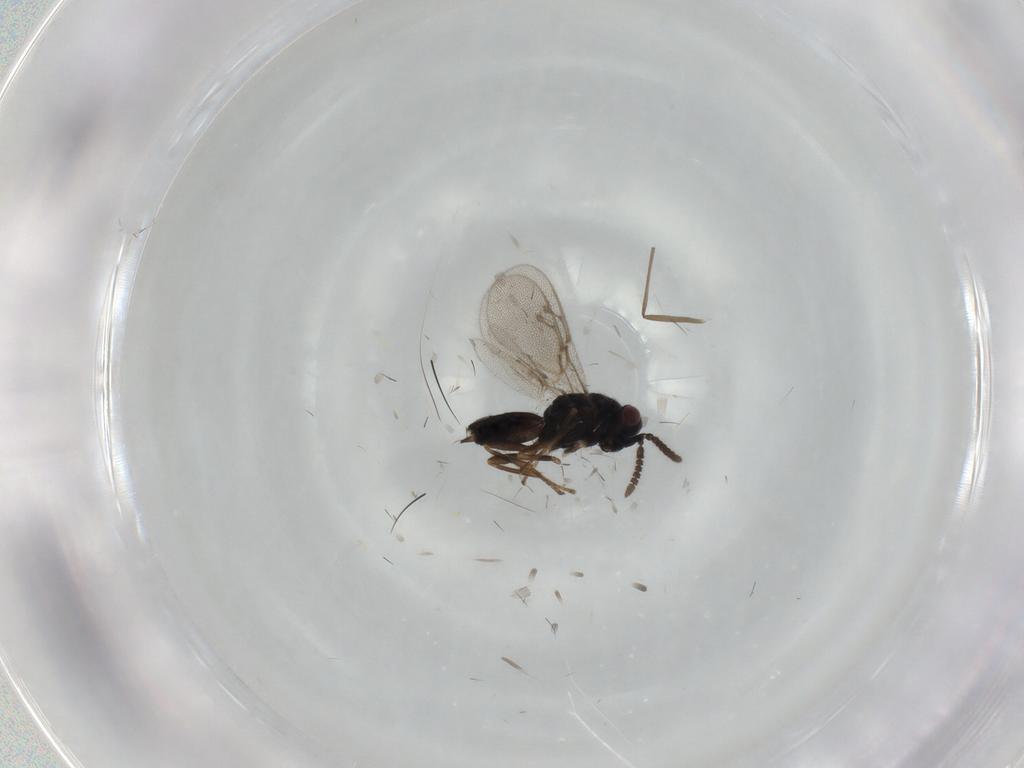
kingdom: Animalia
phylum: Arthropoda
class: Insecta
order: Hymenoptera
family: Pirenidae
